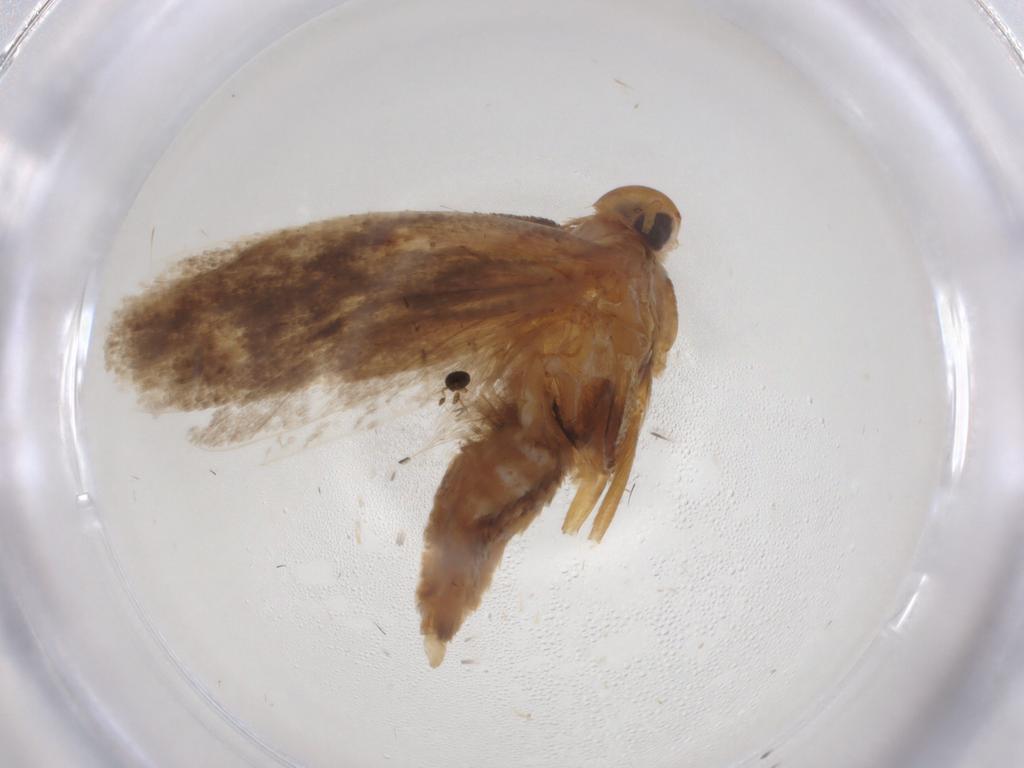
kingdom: Animalia
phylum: Arthropoda
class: Insecta
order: Lepidoptera
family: Gelechiidae
